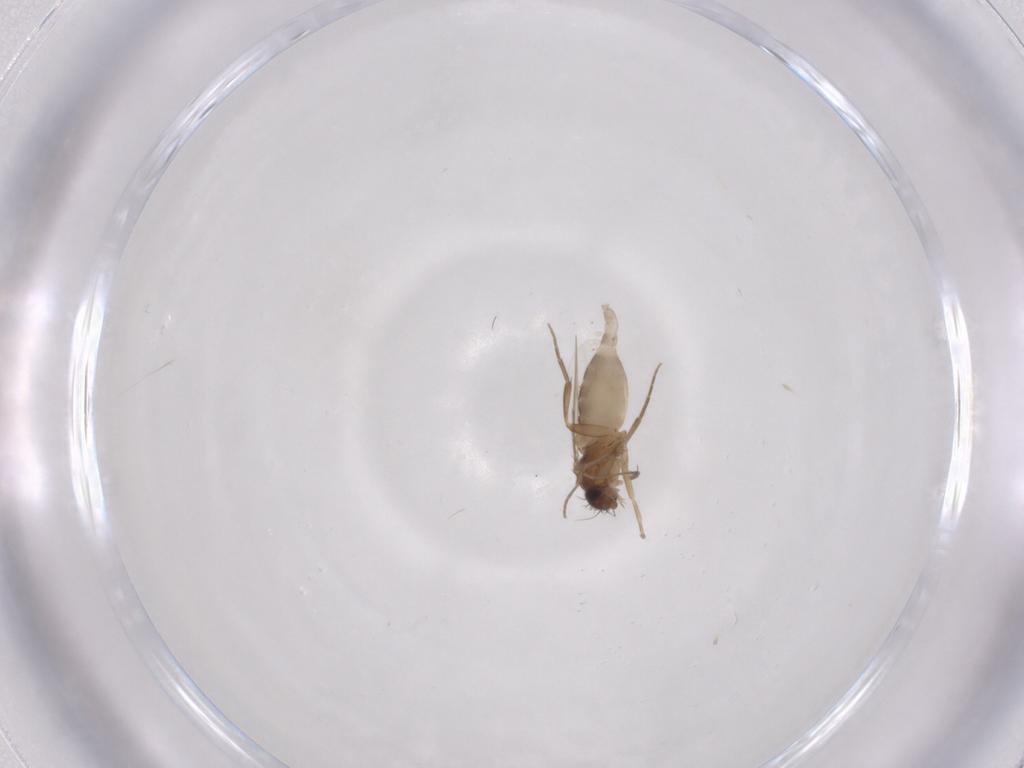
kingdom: Animalia
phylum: Arthropoda
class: Insecta
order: Diptera
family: Phoridae
